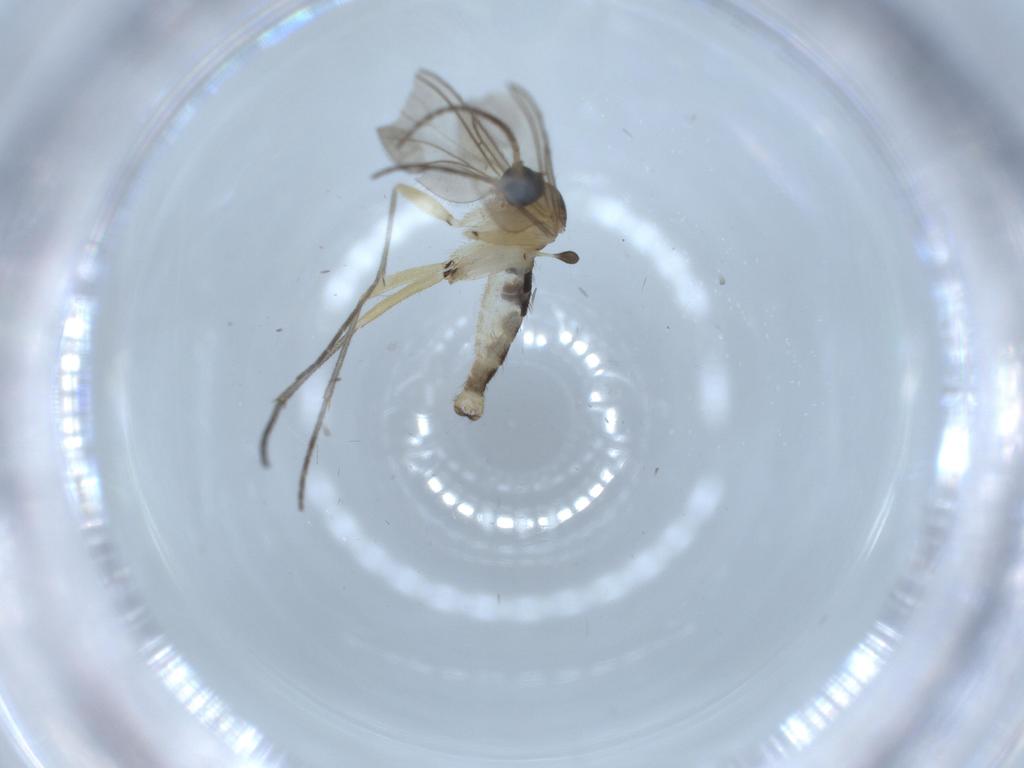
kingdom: Animalia
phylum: Arthropoda
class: Insecta
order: Diptera
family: Sciaridae
